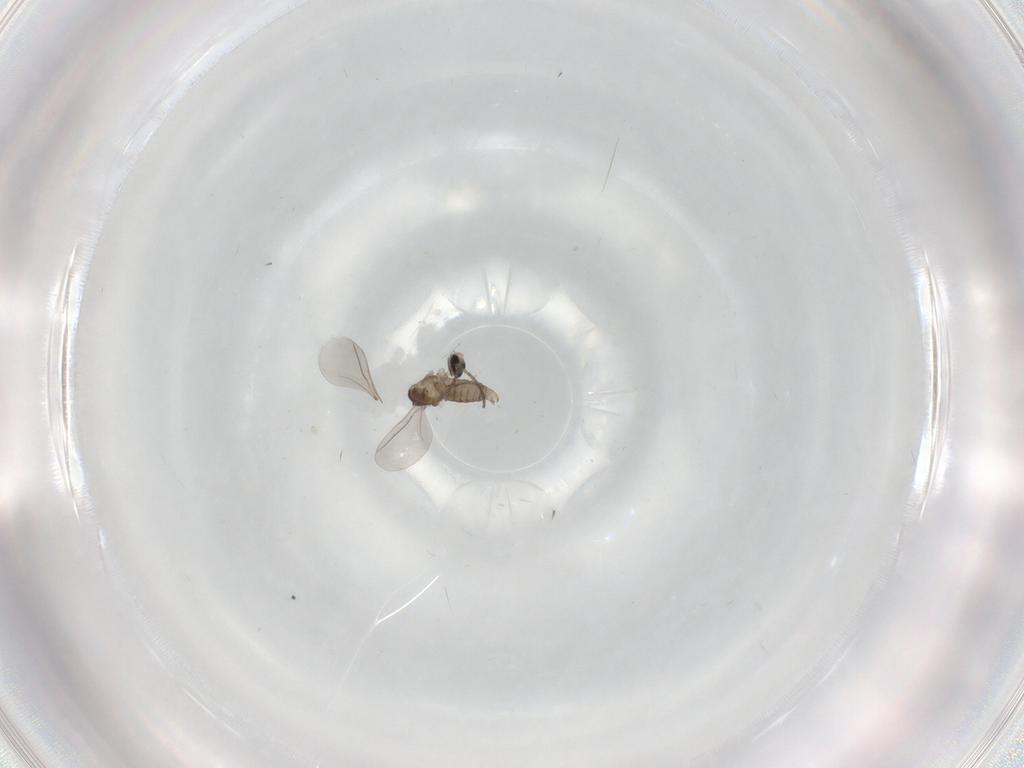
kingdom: Animalia
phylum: Arthropoda
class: Insecta
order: Diptera
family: Cecidomyiidae
